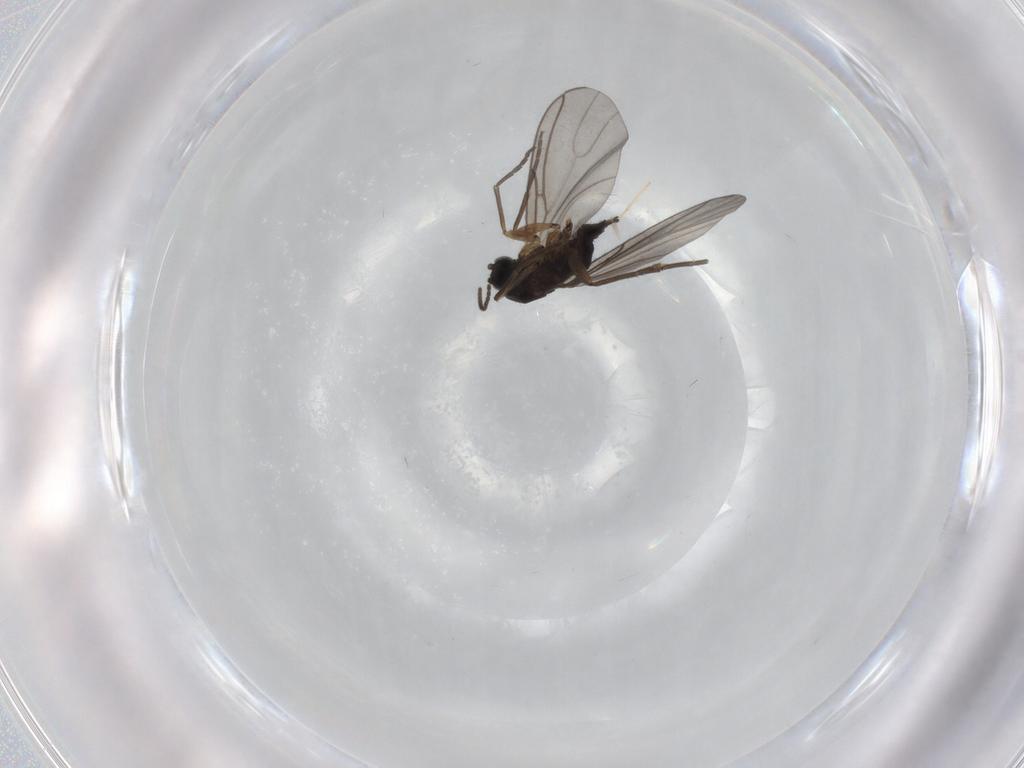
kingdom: Animalia
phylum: Arthropoda
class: Insecta
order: Diptera
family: Sciaridae
